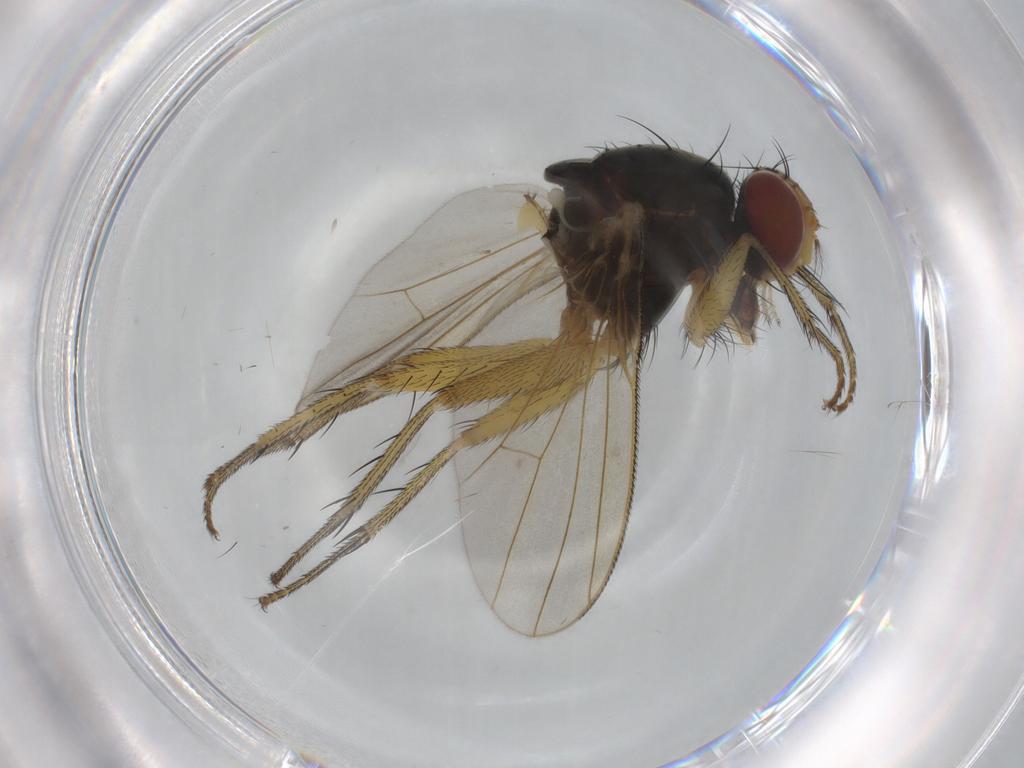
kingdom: Animalia
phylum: Arthropoda
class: Insecta
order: Diptera
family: Muscidae
